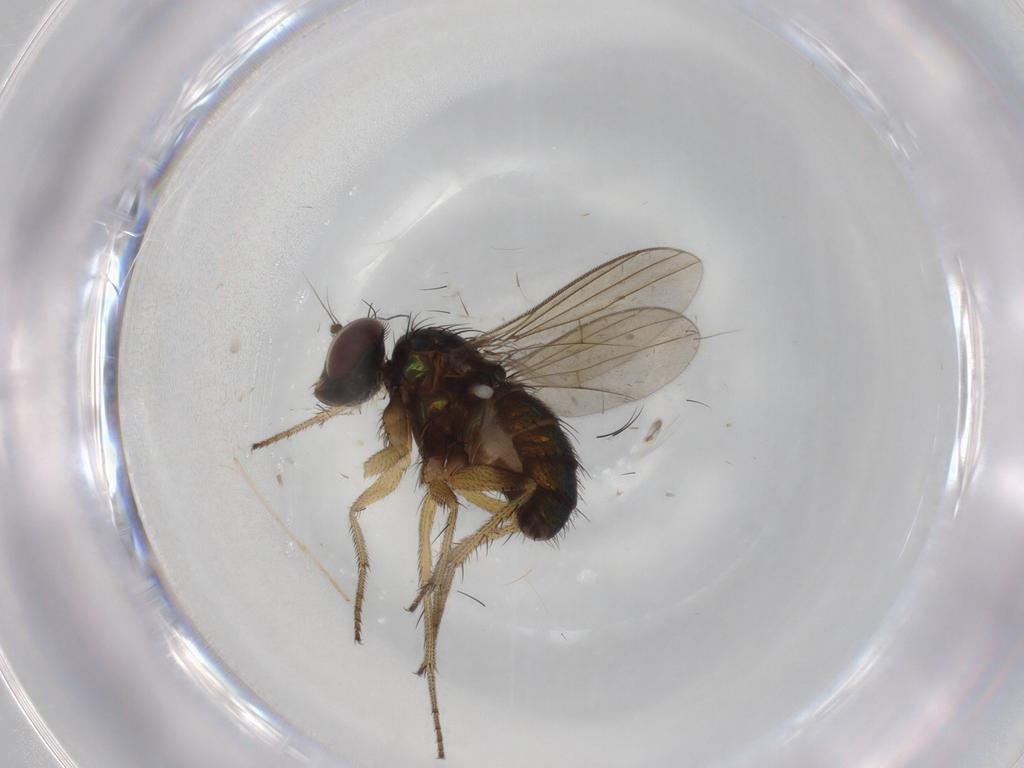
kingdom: Animalia
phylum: Arthropoda
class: Insecta
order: Diptera
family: Dolichopodidae
